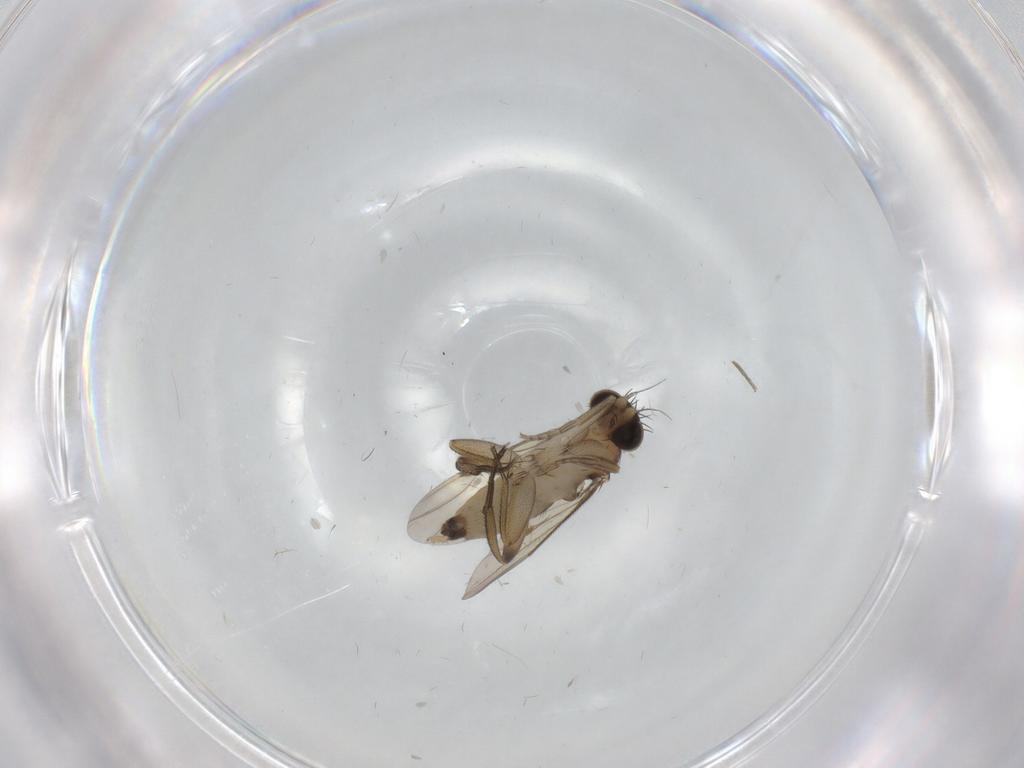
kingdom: Animalia
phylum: Arthropoda
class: Insecta
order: Diptera
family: Phoridae
